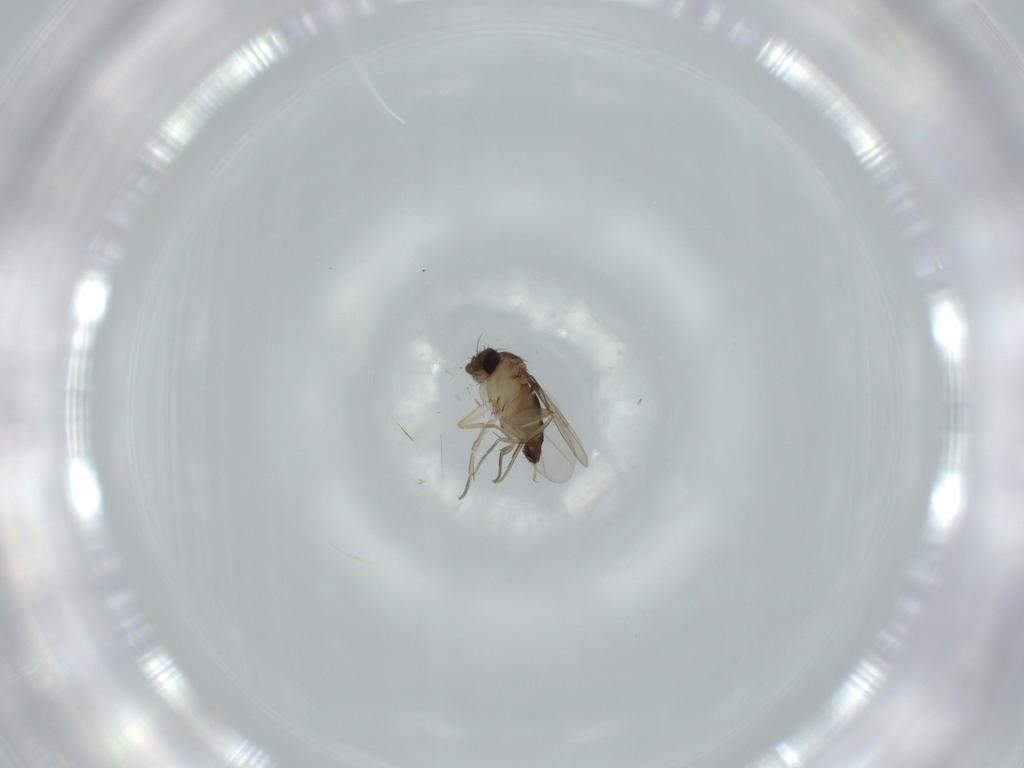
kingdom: Animalia
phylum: Arthropoda
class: Insecta
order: Diptera
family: Phoridae
